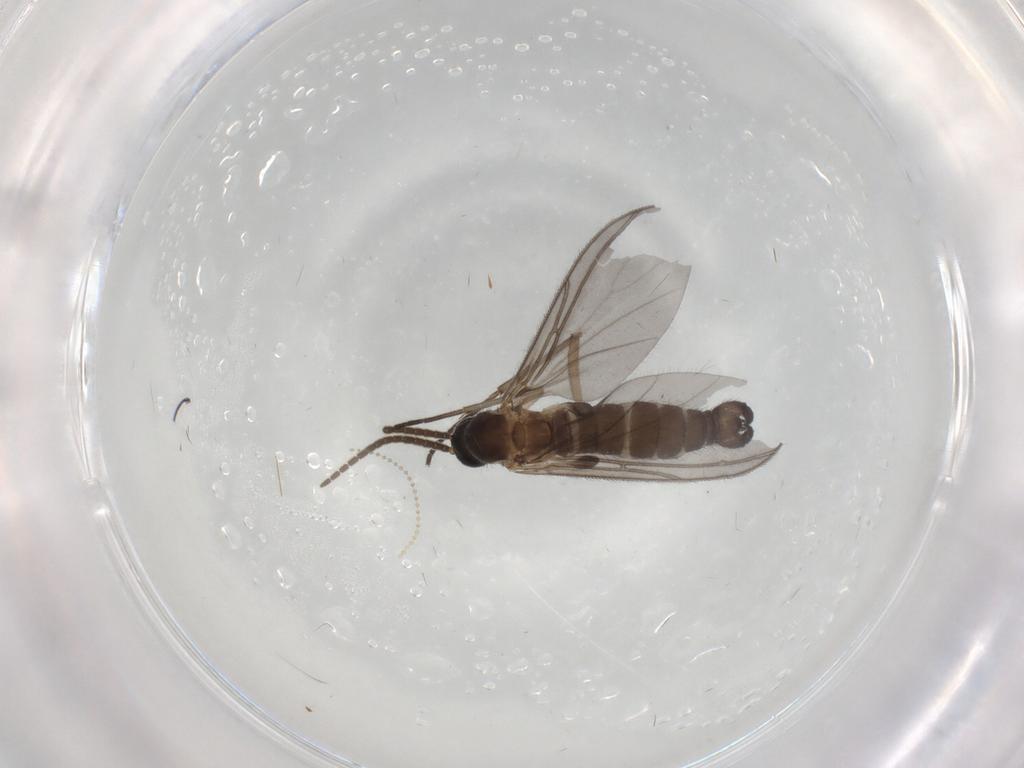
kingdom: Animalia
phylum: Arthropoda
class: Insecta
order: Diptera
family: Cecidomyiidae
